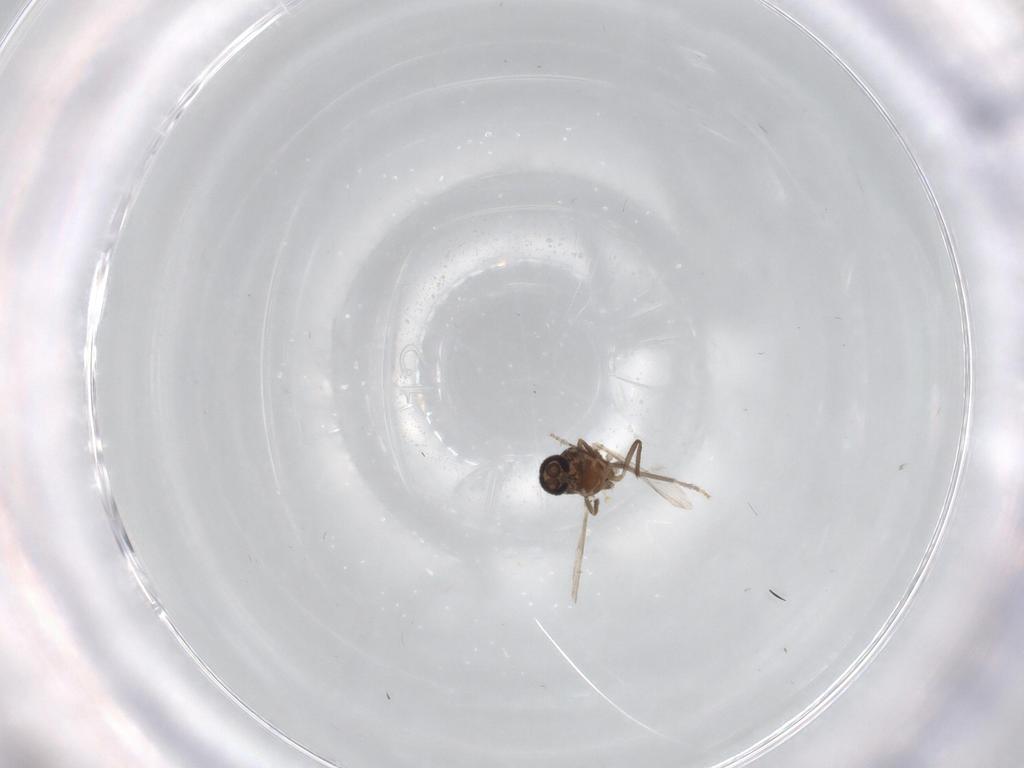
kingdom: Animalia
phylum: Arthropoda
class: Insecta
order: Diptera
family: Ceratopogonidae
